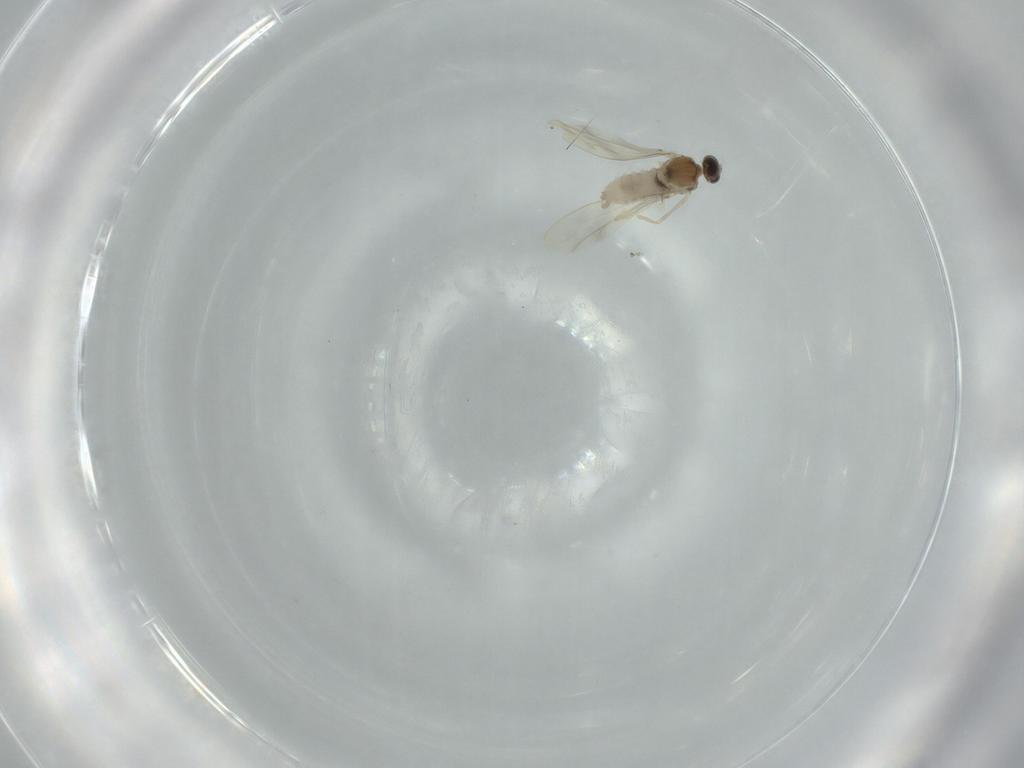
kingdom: Animalia
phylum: Arthropoda
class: Insecta
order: Diptera
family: Cecidomyiidae
